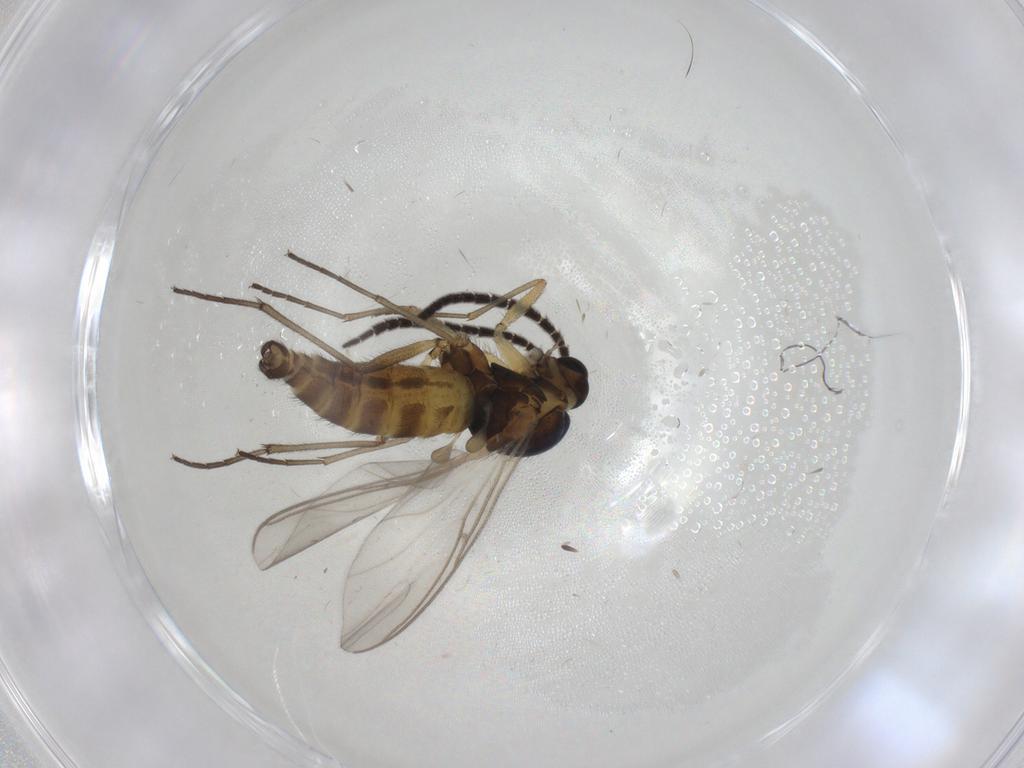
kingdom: Animalia
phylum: Arthropoda
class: Insecta
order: Diptera
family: Sciaridae
